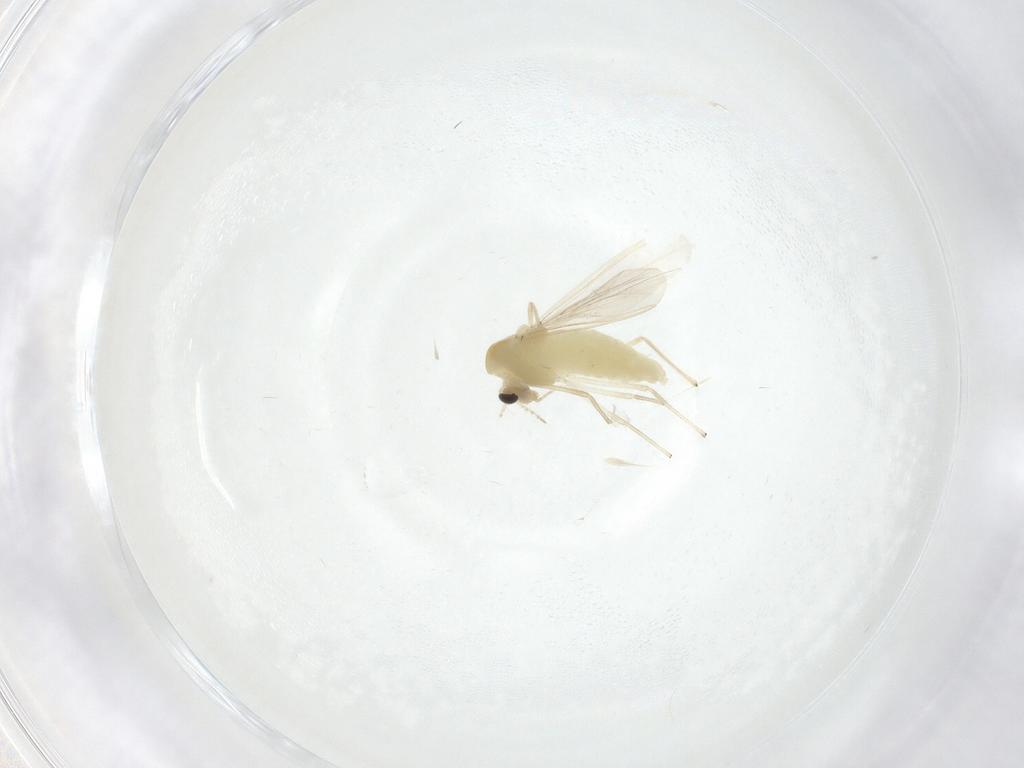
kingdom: Animalia
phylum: Arthropoda
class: Insecta
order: Diptera
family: Chironomidae
